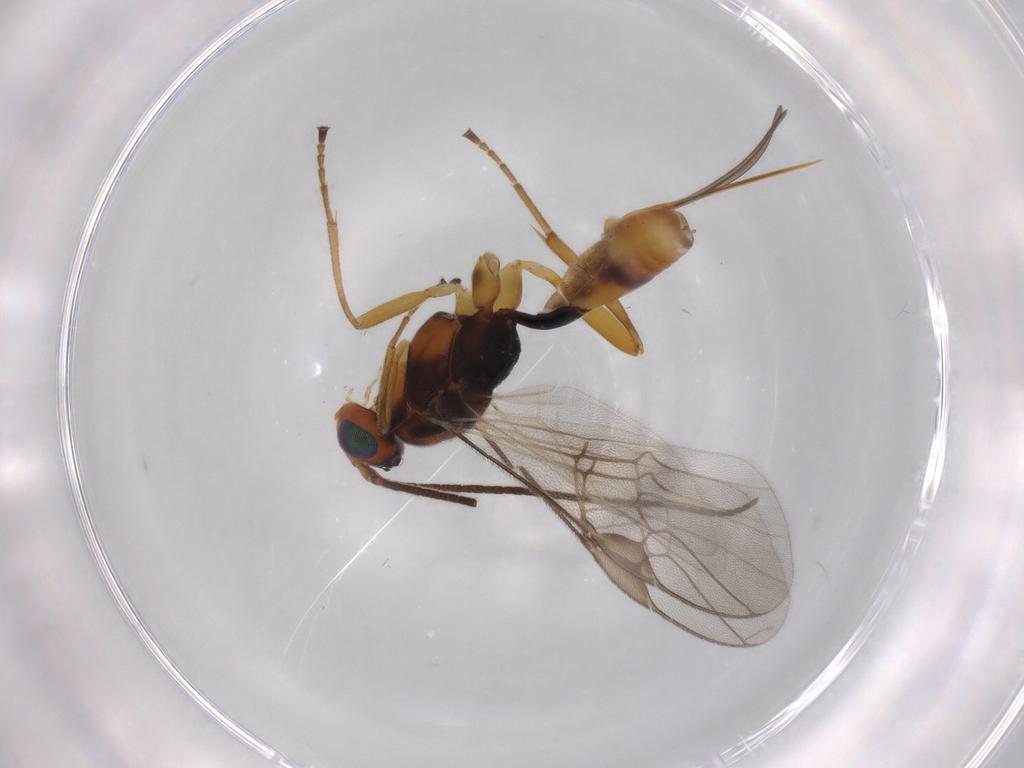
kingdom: Animalia
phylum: Arthropoda
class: Insecta
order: Hymenoptera
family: Braconidae
